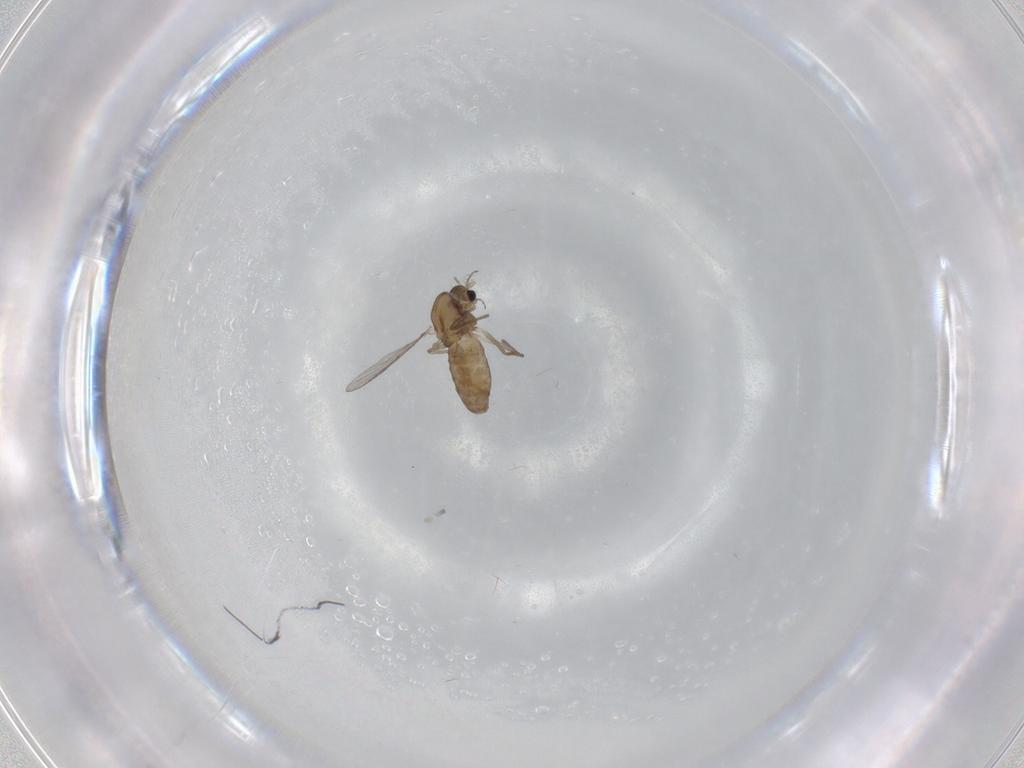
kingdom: Animalia
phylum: Arthropoda
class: Insecta
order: Diptera
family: Chironomidae
